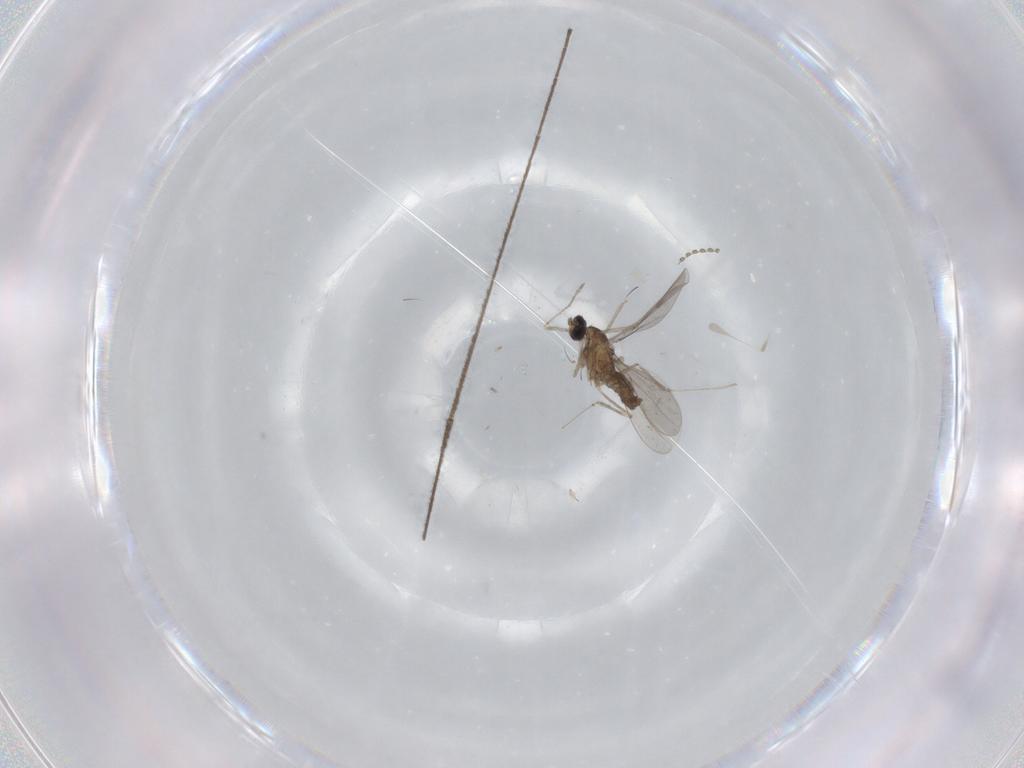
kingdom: Animalia
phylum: Arthropoda
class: Insecta
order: Diptera
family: Cecidomyiidae
